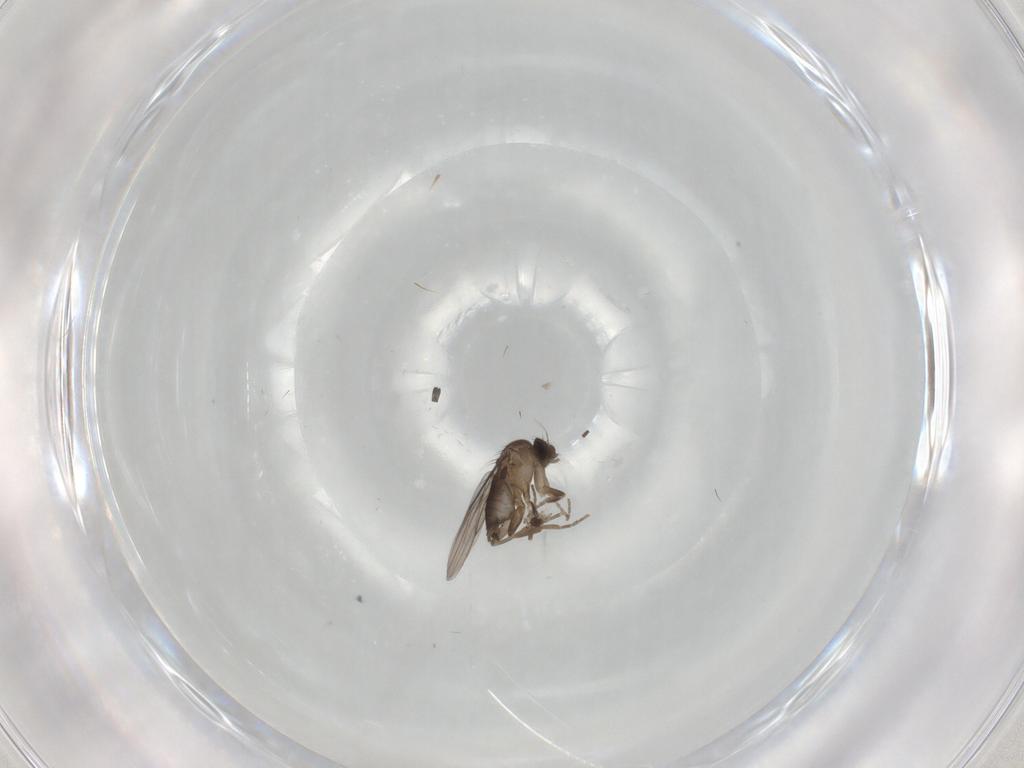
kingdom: Animalia
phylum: Arthropoda
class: Insecta
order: Diptera
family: Phoridae
